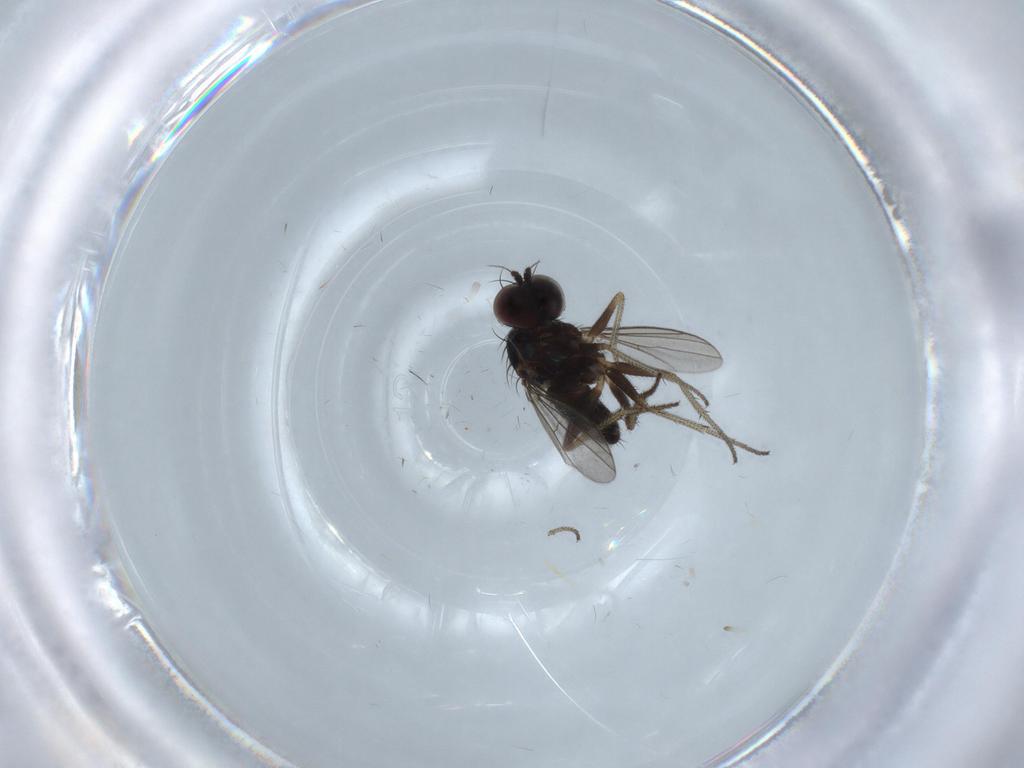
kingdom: Animalia
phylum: Arthropoda
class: Insecta
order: Diptera
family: Dolichopodidae
